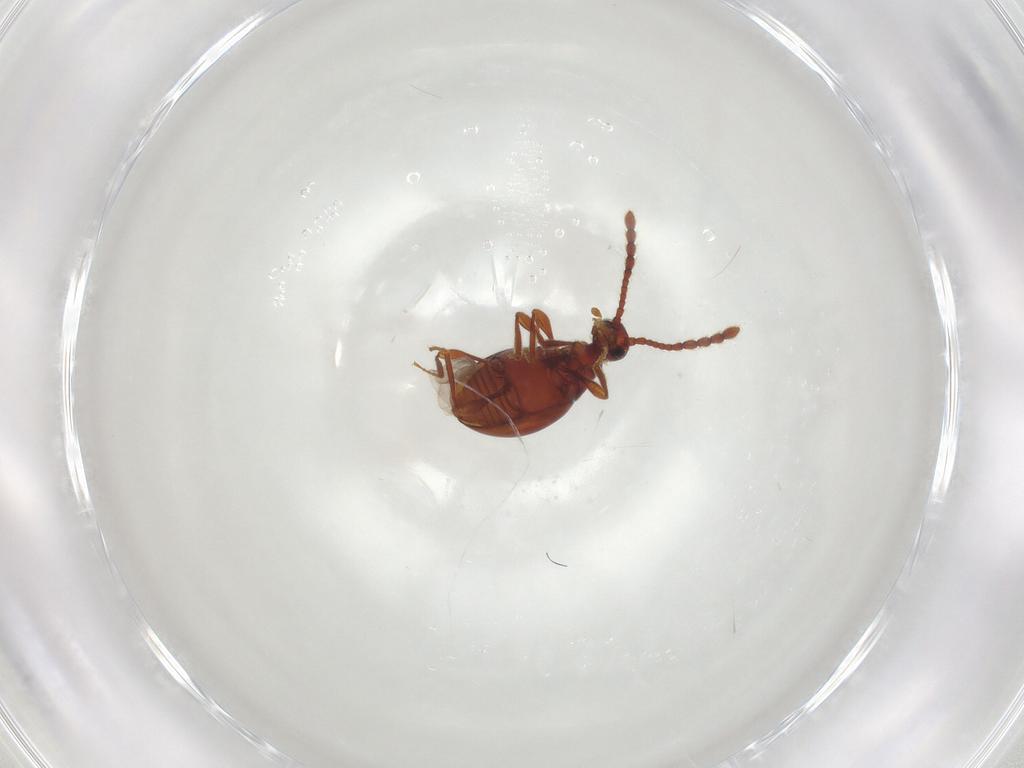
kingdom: Animalia
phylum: Arthropoda
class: Insecta
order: Coleoptera
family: Staphylinidae
